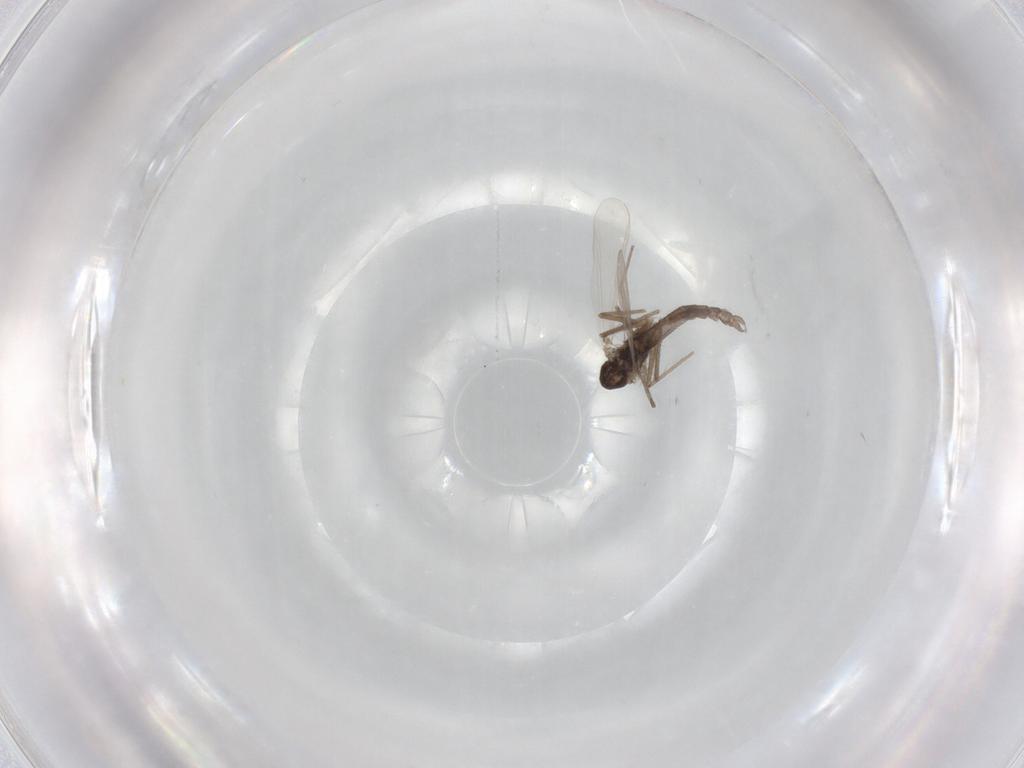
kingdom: Animalia
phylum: Arthropoda
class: Insecta
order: Diptera
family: Chironomidae
